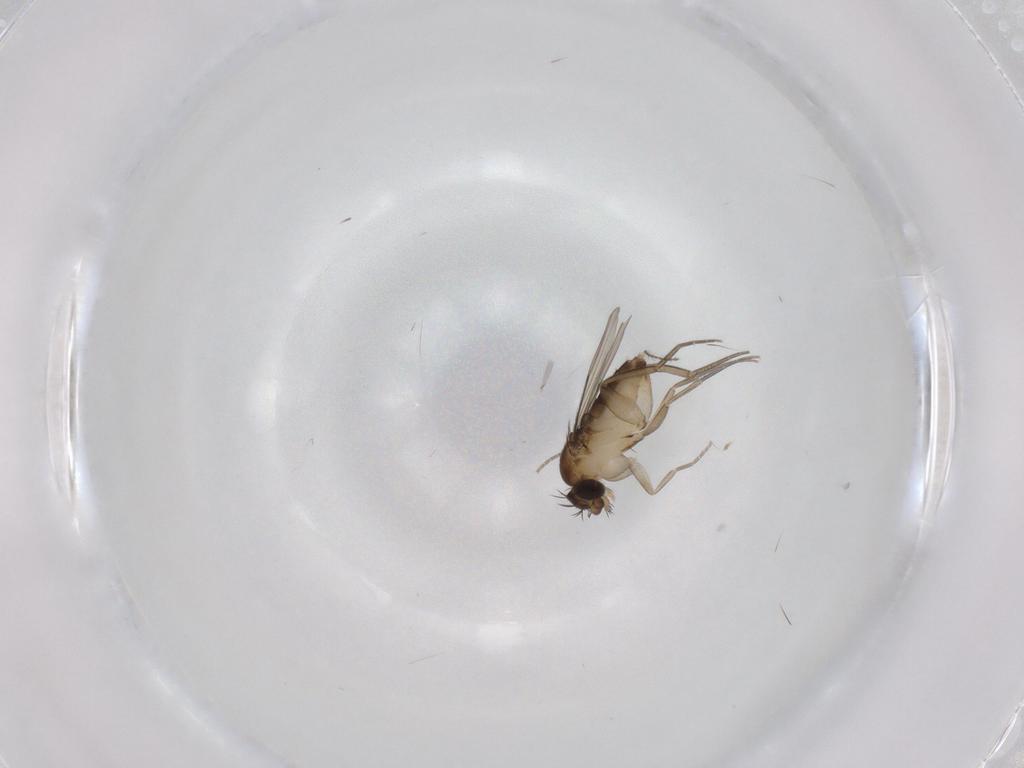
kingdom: Animalia
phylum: Arthropoda
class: Insecta
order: Diptera
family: Phoridae
